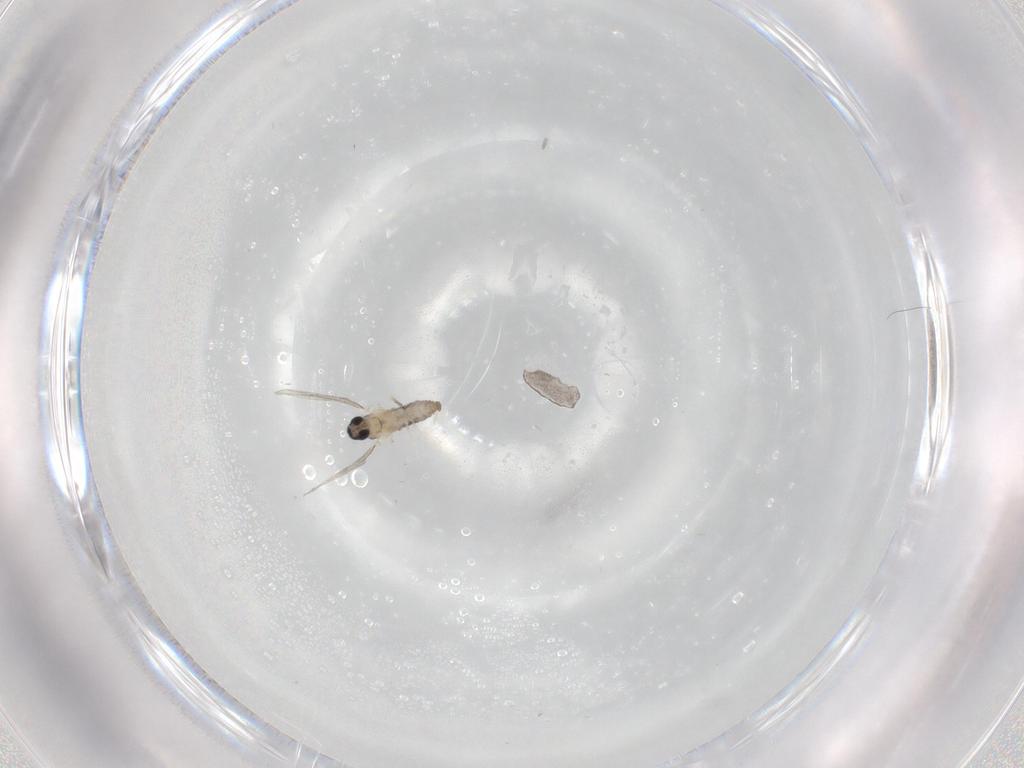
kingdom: Animalia
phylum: Arthropoda
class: Insecta
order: Diptera
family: Cecidomyiidae
